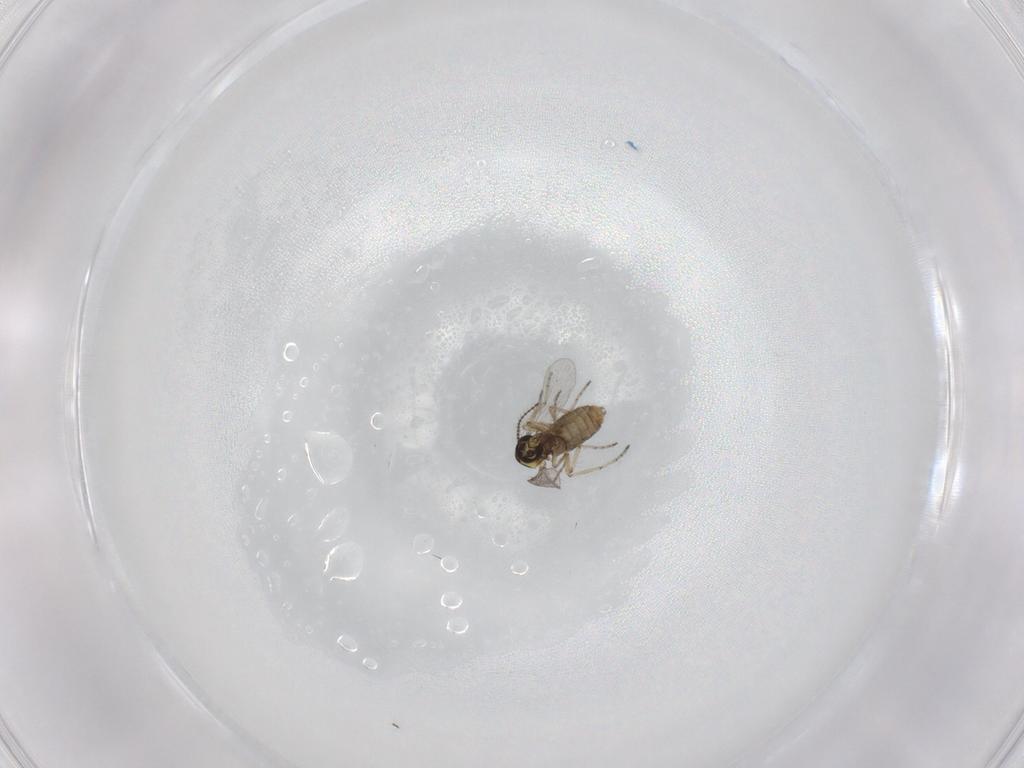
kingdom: Animalia
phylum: Arthropoda
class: Insecta
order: Diptera
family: Ceratopogonidae
